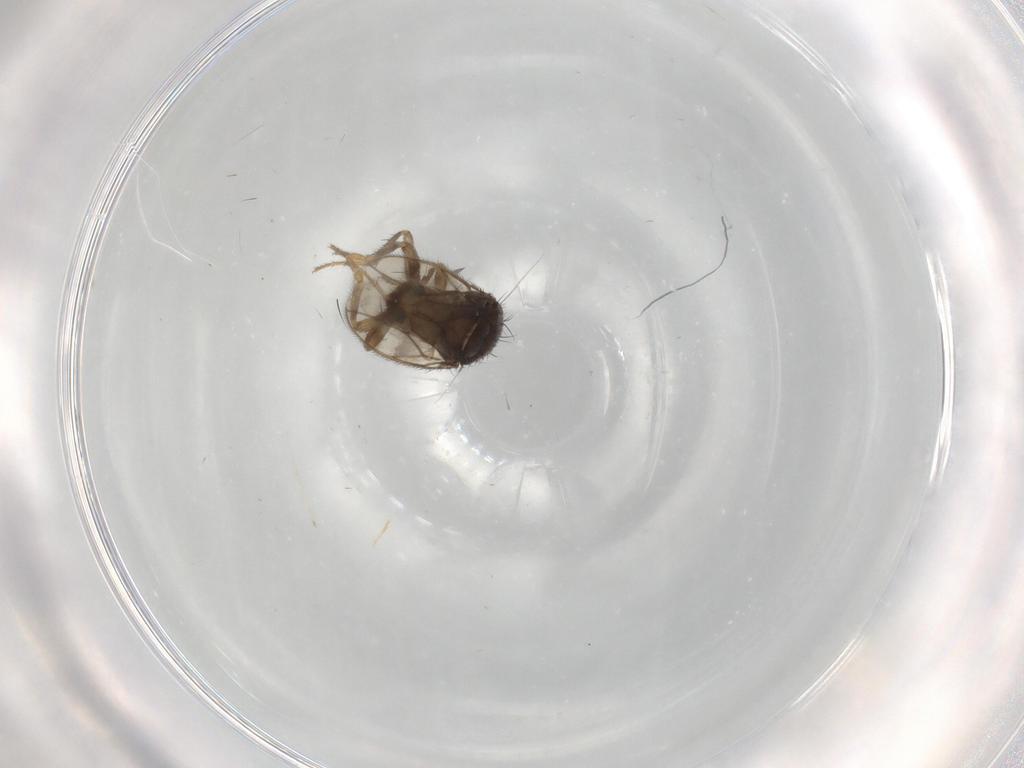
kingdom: Animalia
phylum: Arthropoda
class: Insecta
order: Diptera
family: Sphaeroceridae
